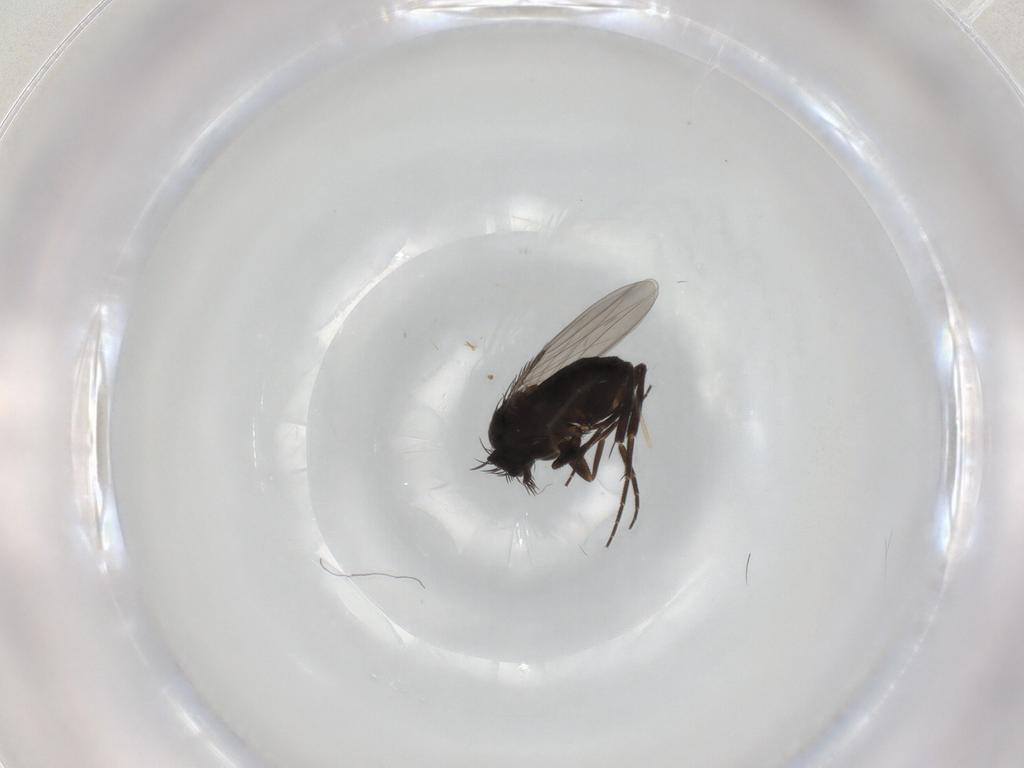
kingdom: Animalia
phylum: Arthropoda
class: Insecta
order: Diptera
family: Phoridae
